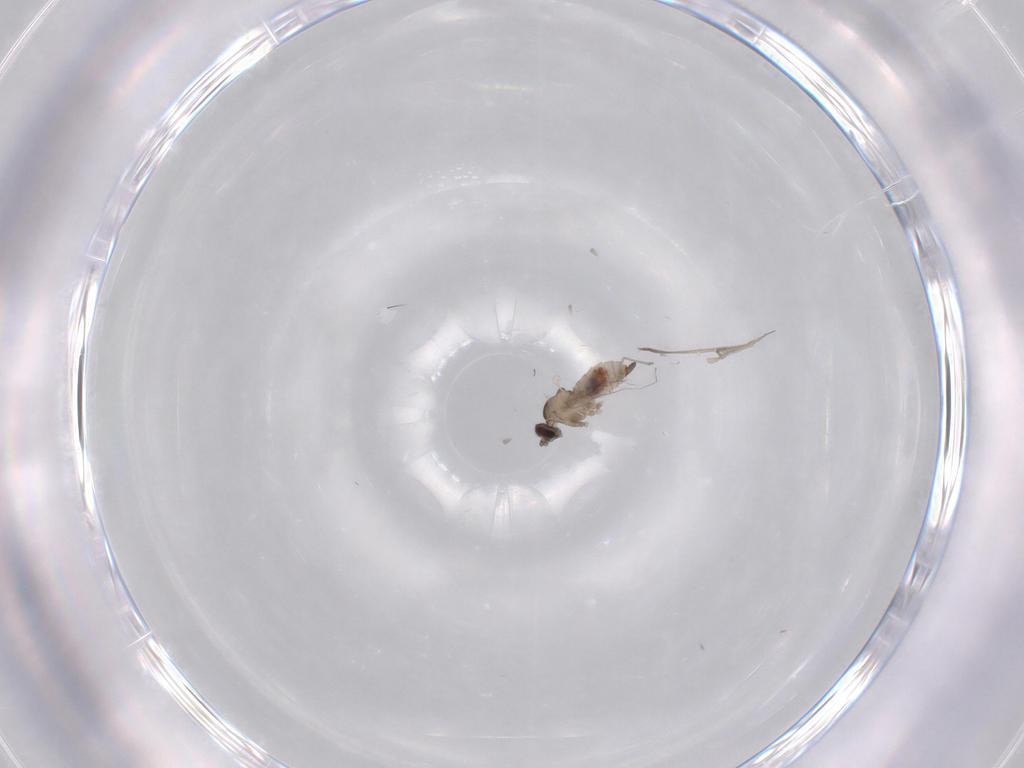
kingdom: Animalia
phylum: Arthropoda
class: Insecta
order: Diptera
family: Cecidomyiidae
